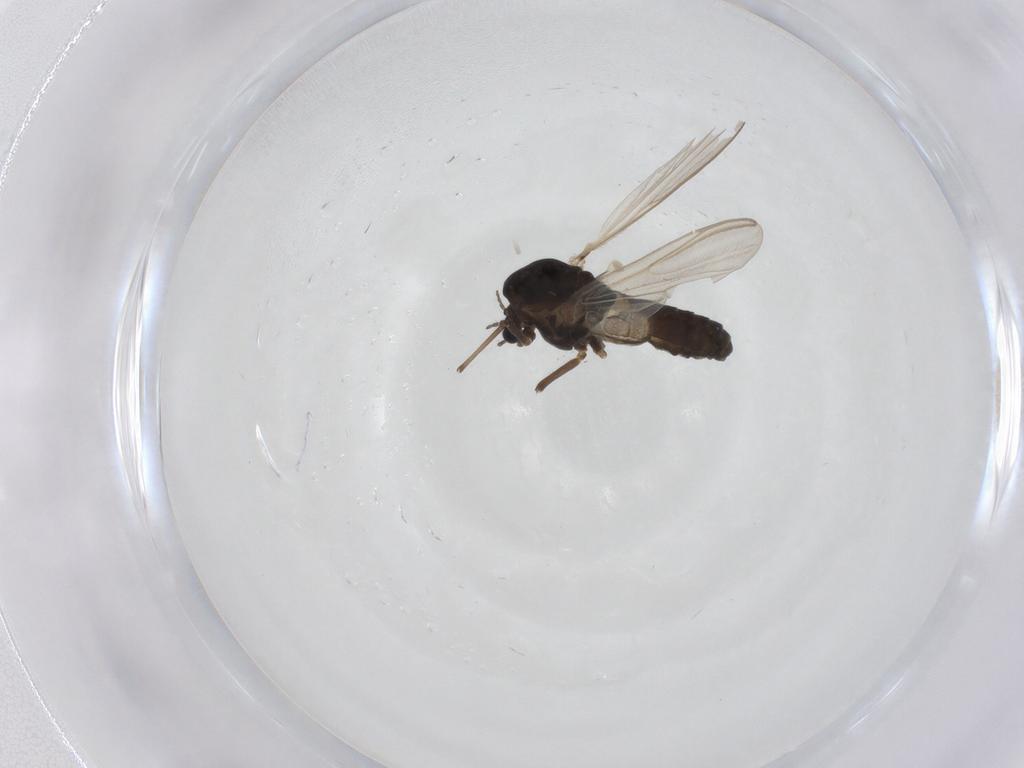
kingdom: Animalia
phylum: Arthropoda
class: Insecta
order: Diptera
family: Chironomidae
